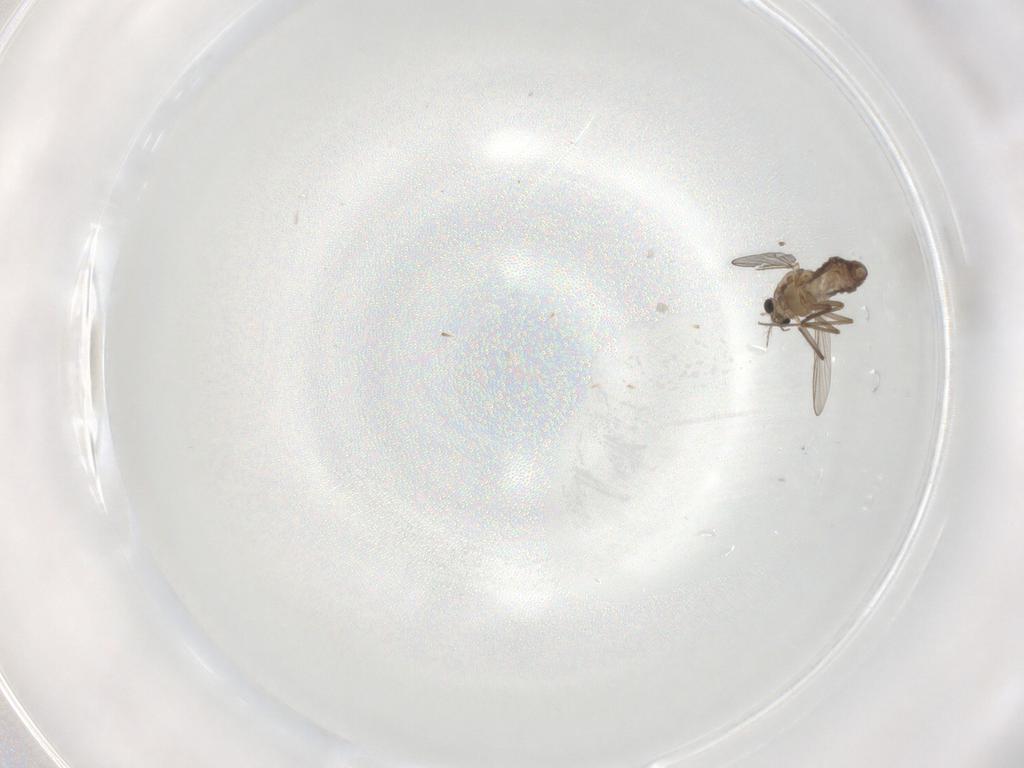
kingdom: Animalia
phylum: Arthropoda
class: Insecta
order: Diptera
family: Chironomidae
